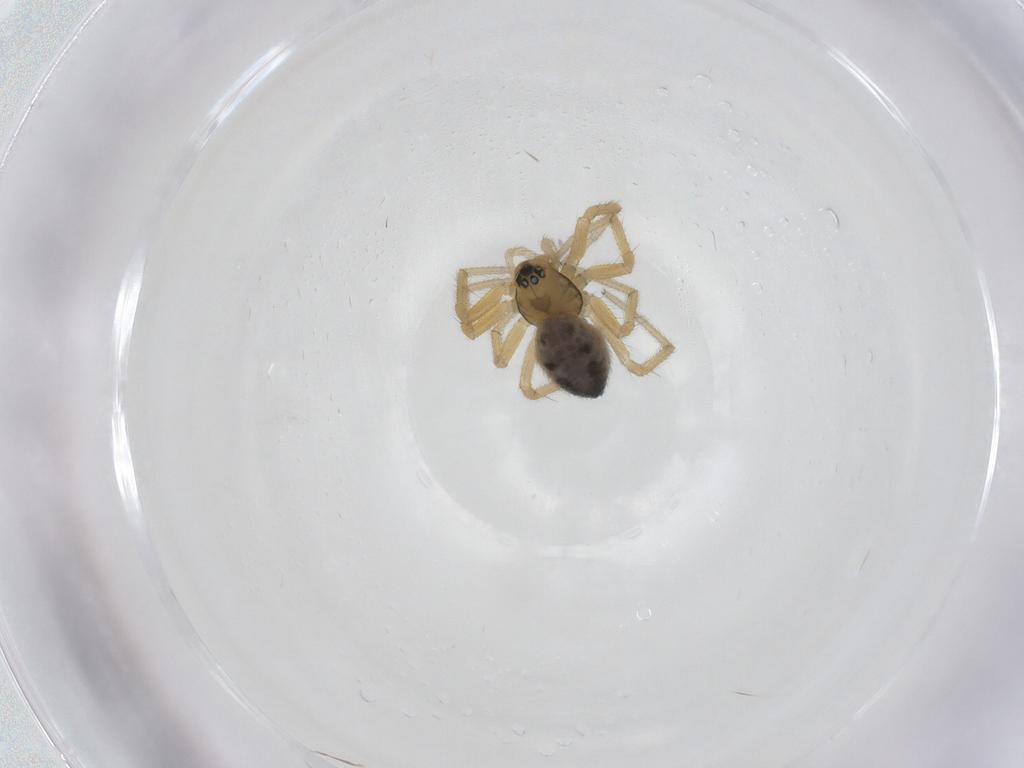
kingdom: Animalia
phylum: Arthropoda
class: Arachnida
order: Araneae
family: Linyphiidae
